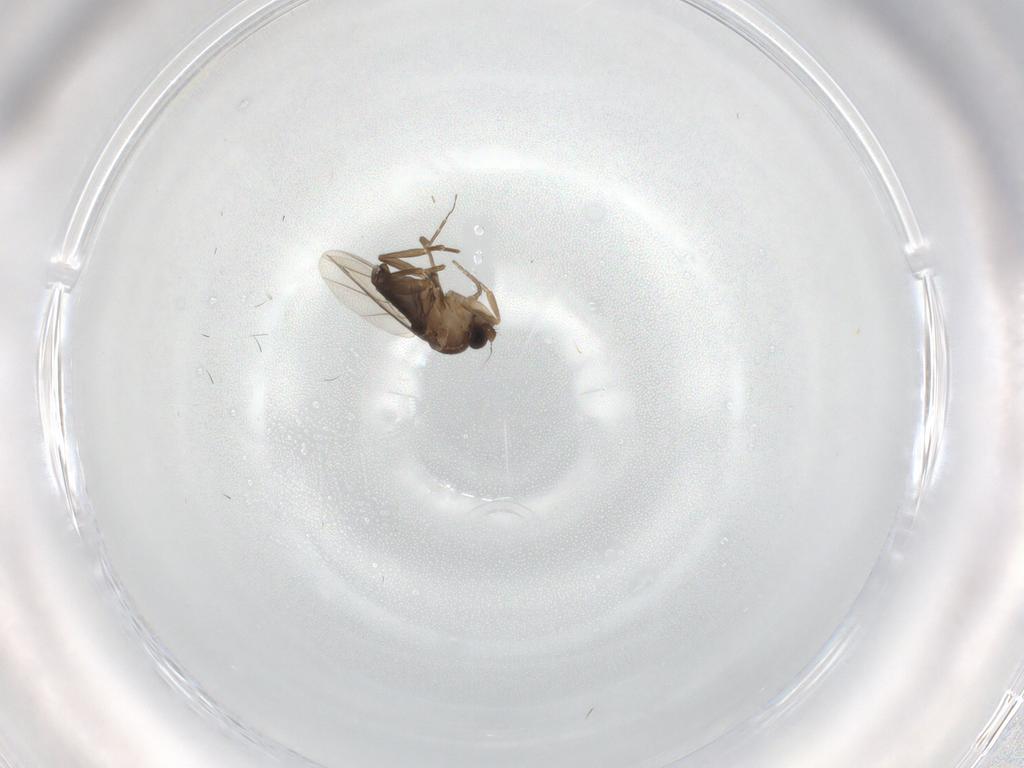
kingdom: Animalia
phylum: Arthropoda
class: Insecta
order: Diptera
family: Phoridae
